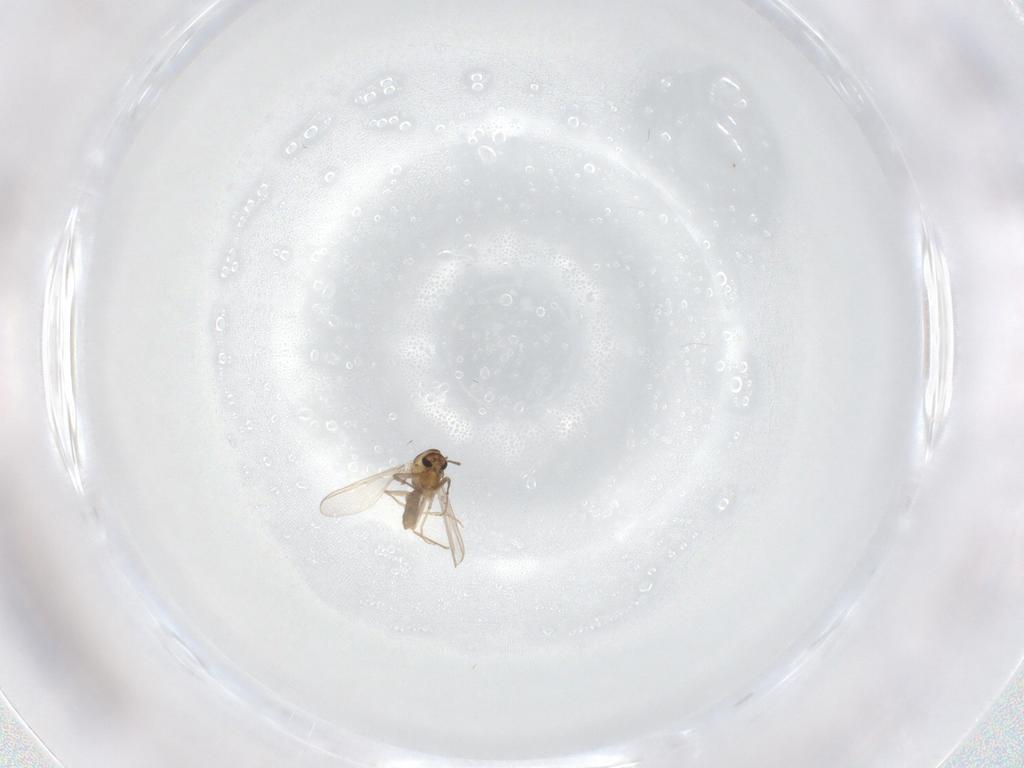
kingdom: Animalia
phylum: Arthropoda
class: Insecta
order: Diptera
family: Chironomidae
